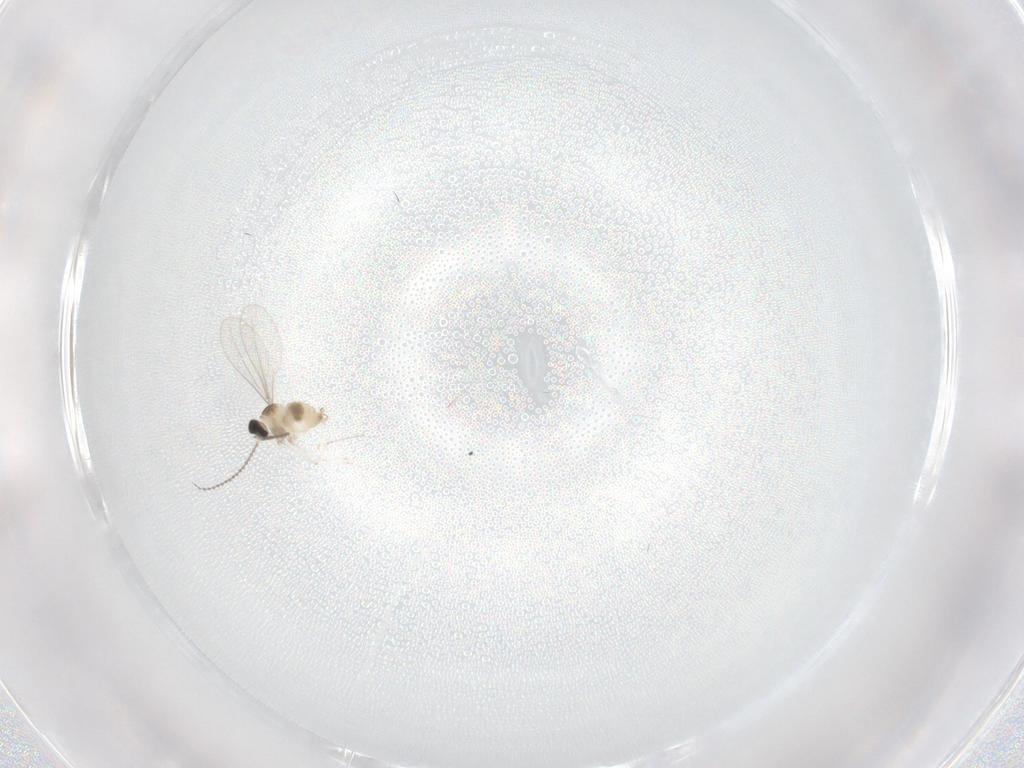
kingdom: Animalia
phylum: Arthropoda
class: Insecta
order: Diptera
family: Cecidomyiidae
